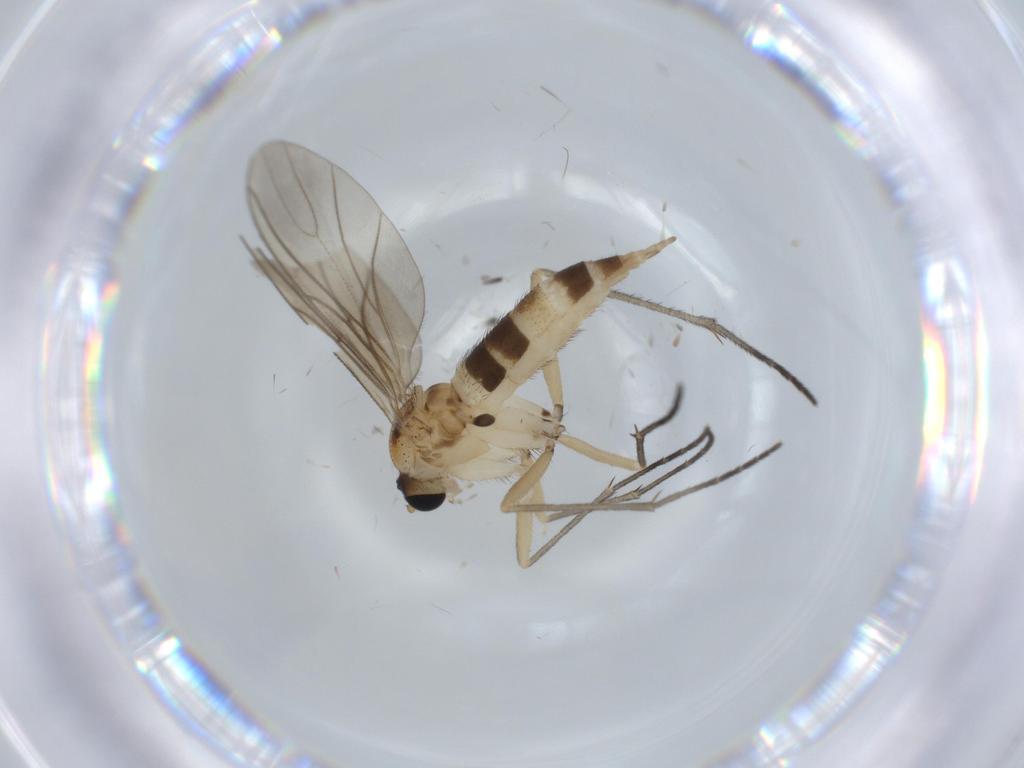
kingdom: Animalia
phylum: Arthropoda
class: Insecta
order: Diptera
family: Sciaridae
